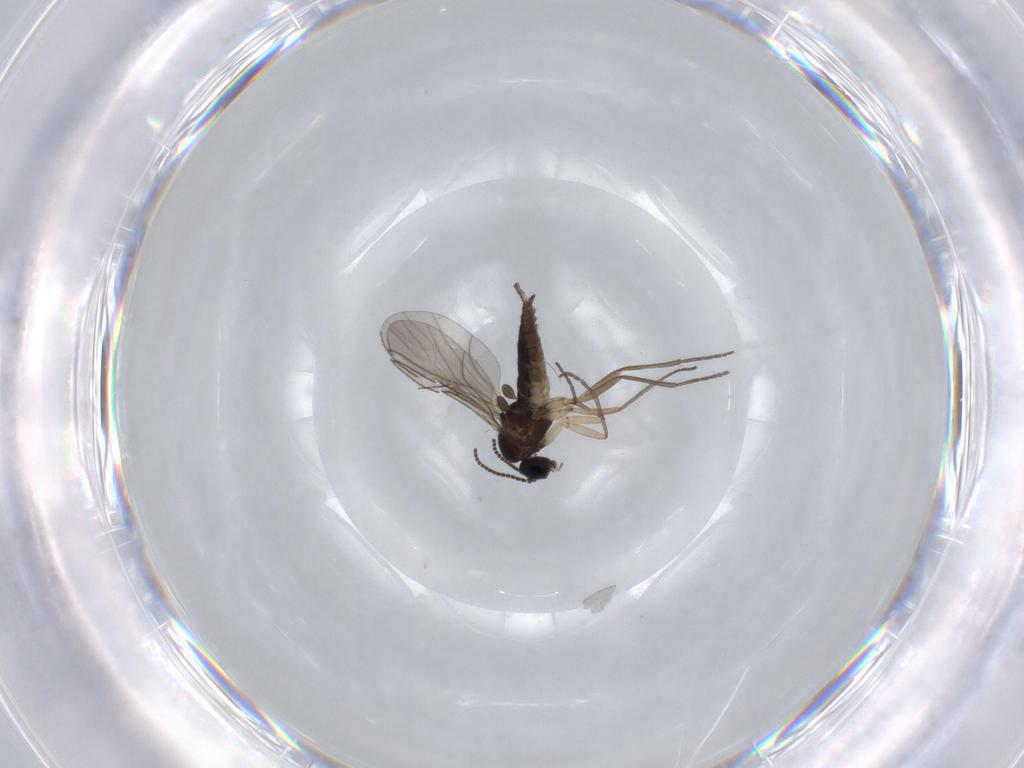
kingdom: Animalia
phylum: Arthropoda
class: Insecta
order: Diptera
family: Sciaridae
